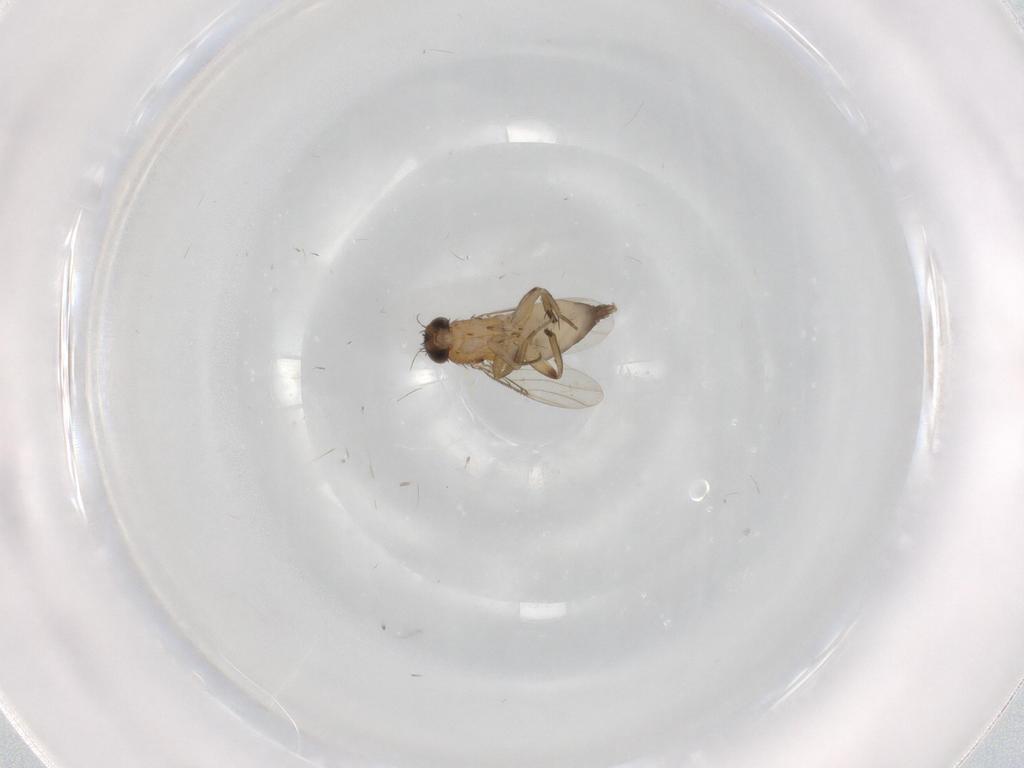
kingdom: Animalia
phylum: Arthropoda
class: Insecta
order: Diptera
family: Phoridae
